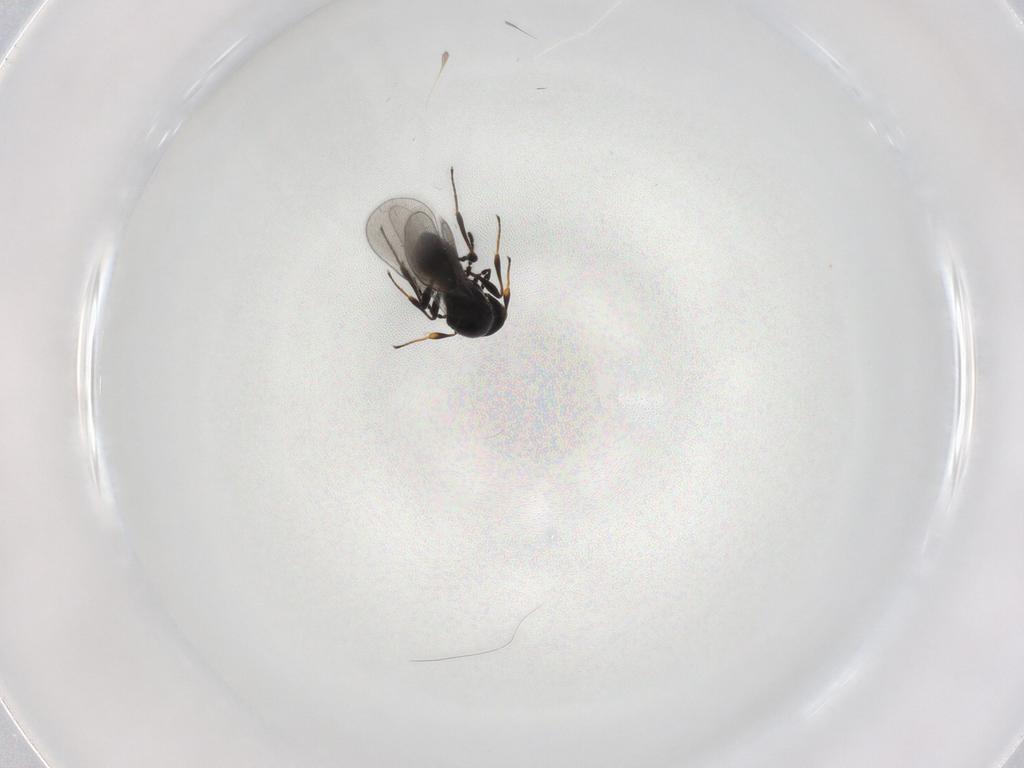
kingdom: Animalia
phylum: Arthropoda
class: Insecta
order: Hymenoptera
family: Platygastridae
